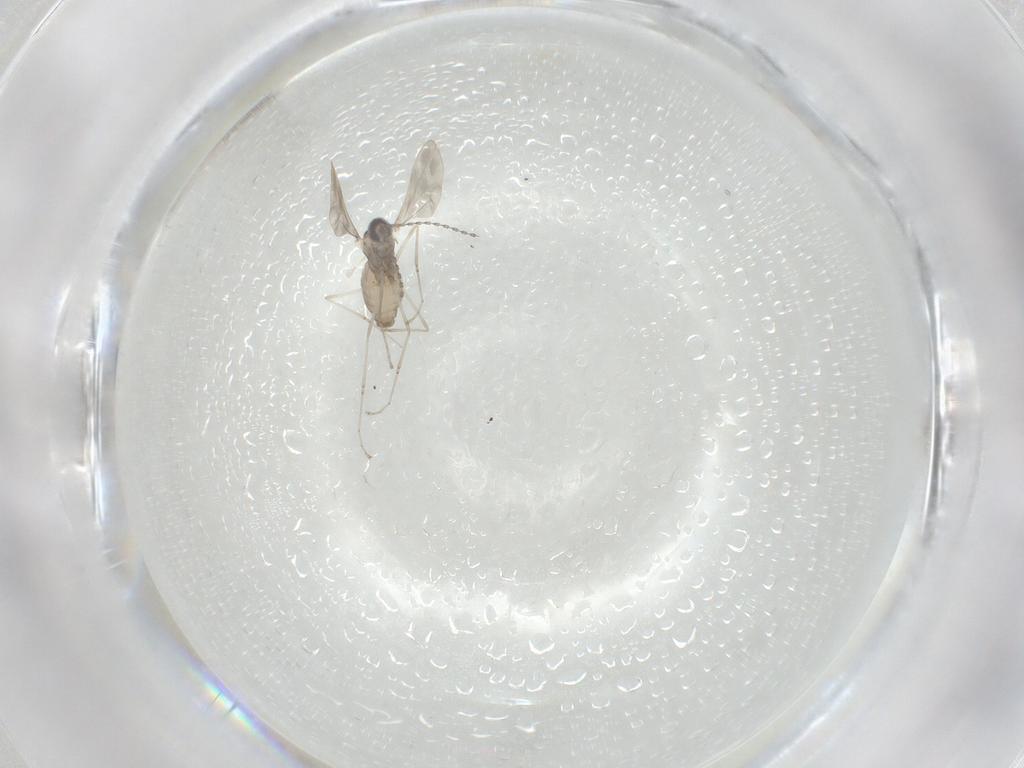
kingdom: Animalia
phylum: Arthropoda
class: Insecta
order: Diptera
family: Cecidomyiidae
